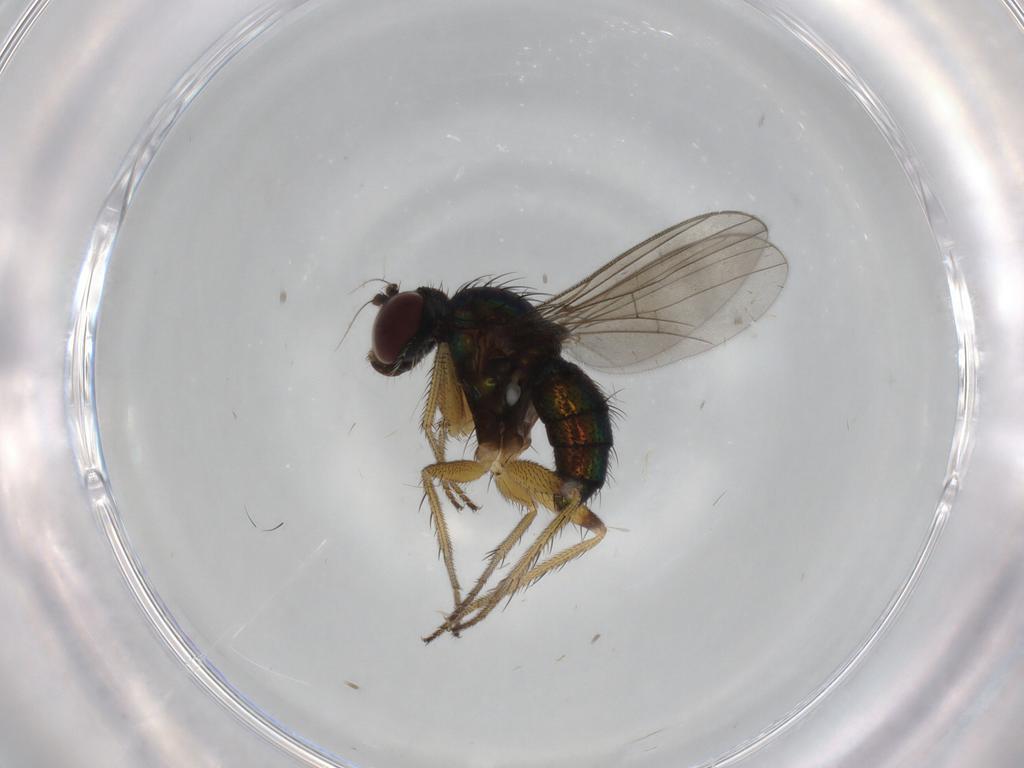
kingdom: Animalia
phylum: Arthropoda
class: Insecta
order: Diptera
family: Dolichopodidae
